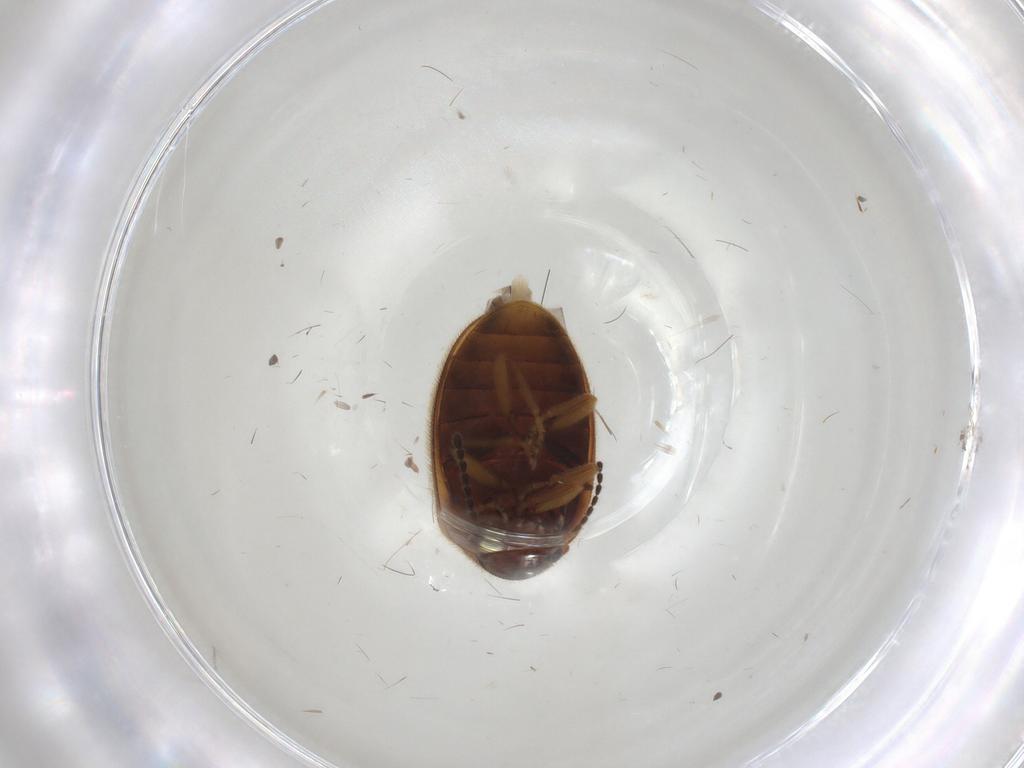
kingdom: Animalia
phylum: Arthropoda
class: Insecta
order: Coleoptera
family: Scirtidae
